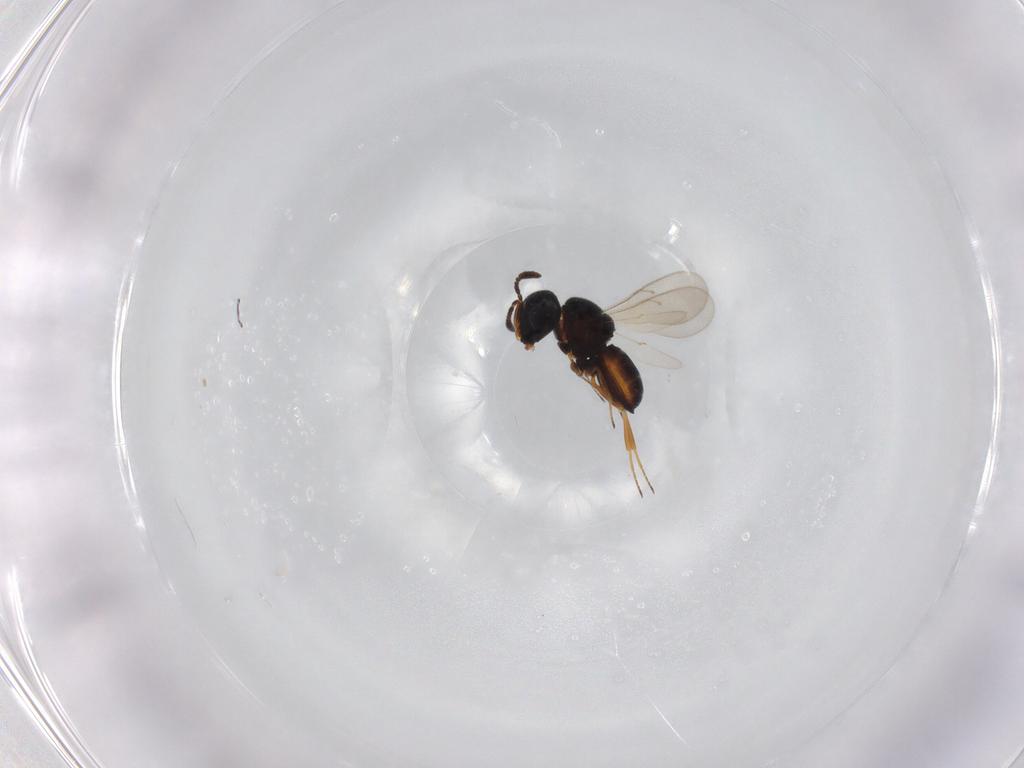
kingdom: Animalia
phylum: Arthropoda
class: Insecta
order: Hymenoptera
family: Scelionidae
